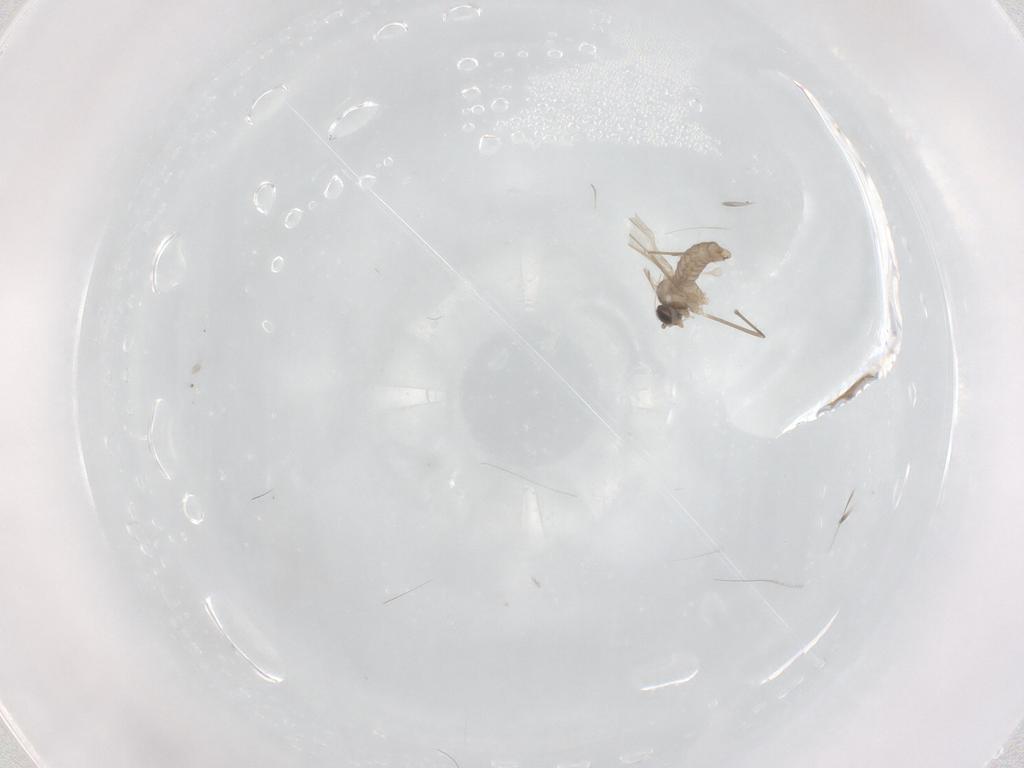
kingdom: Animalia
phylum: Arthropoda
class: Insecta
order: Diptera
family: Cecidomyiidae
